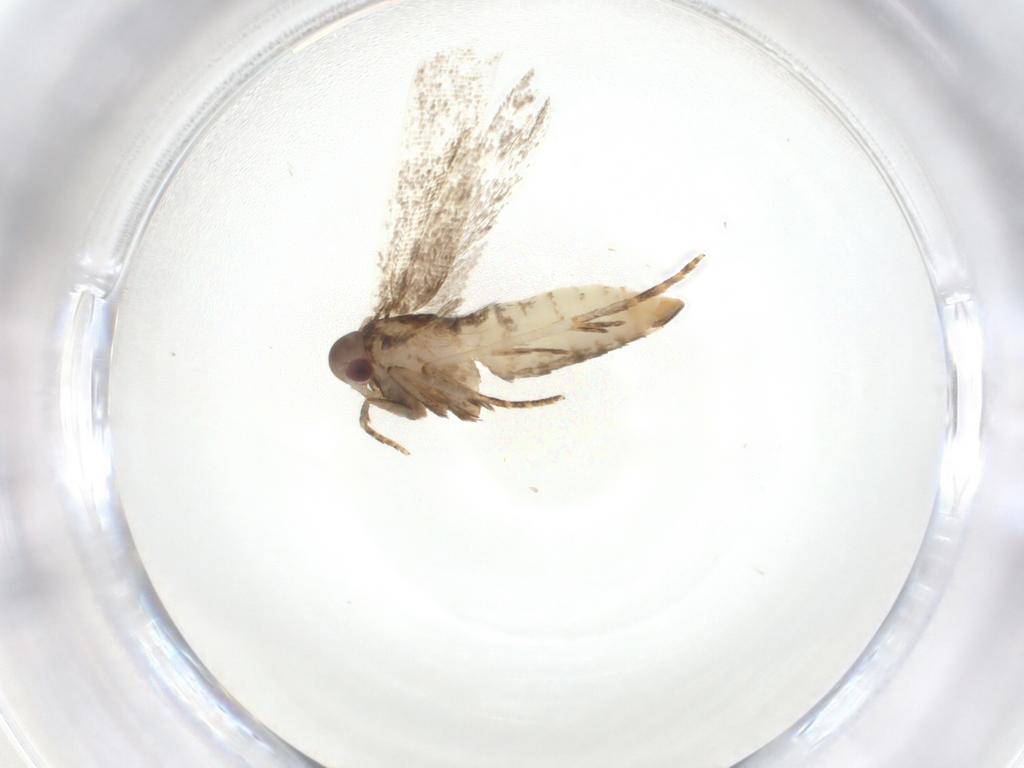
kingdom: Animalia
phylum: Arthropoda
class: Insecta
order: Lepidoptera
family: Gelechiidae
